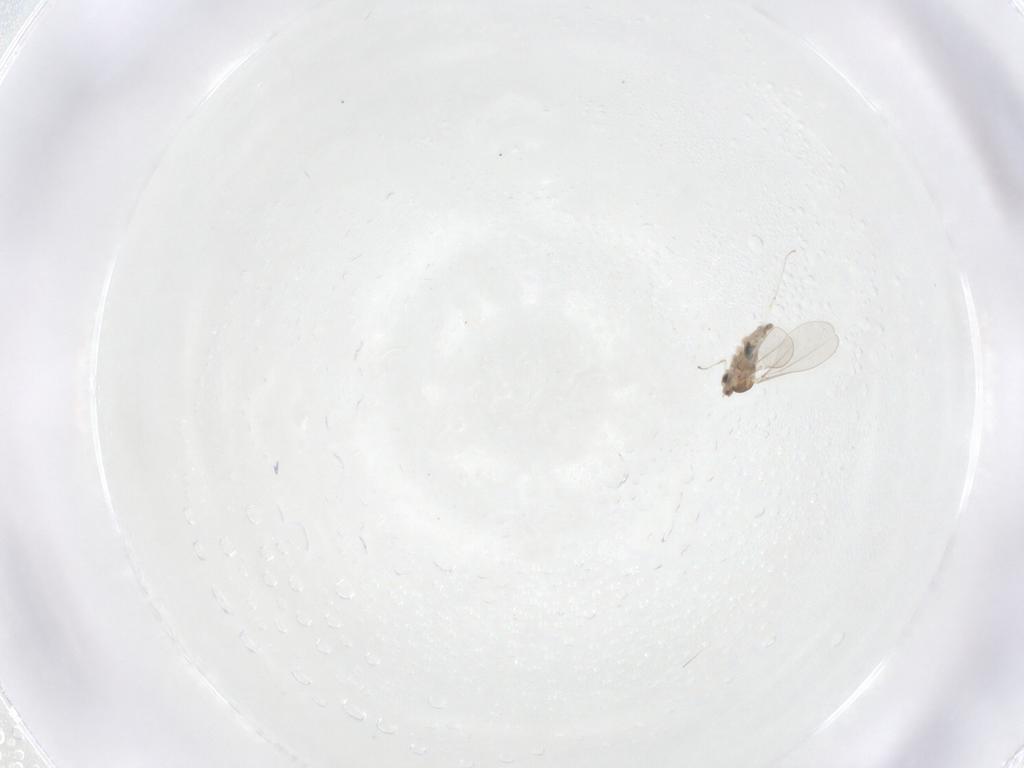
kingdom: Animalia
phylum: Arthropoda
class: Insecta
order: Diptera
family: Cecidomyiidae
